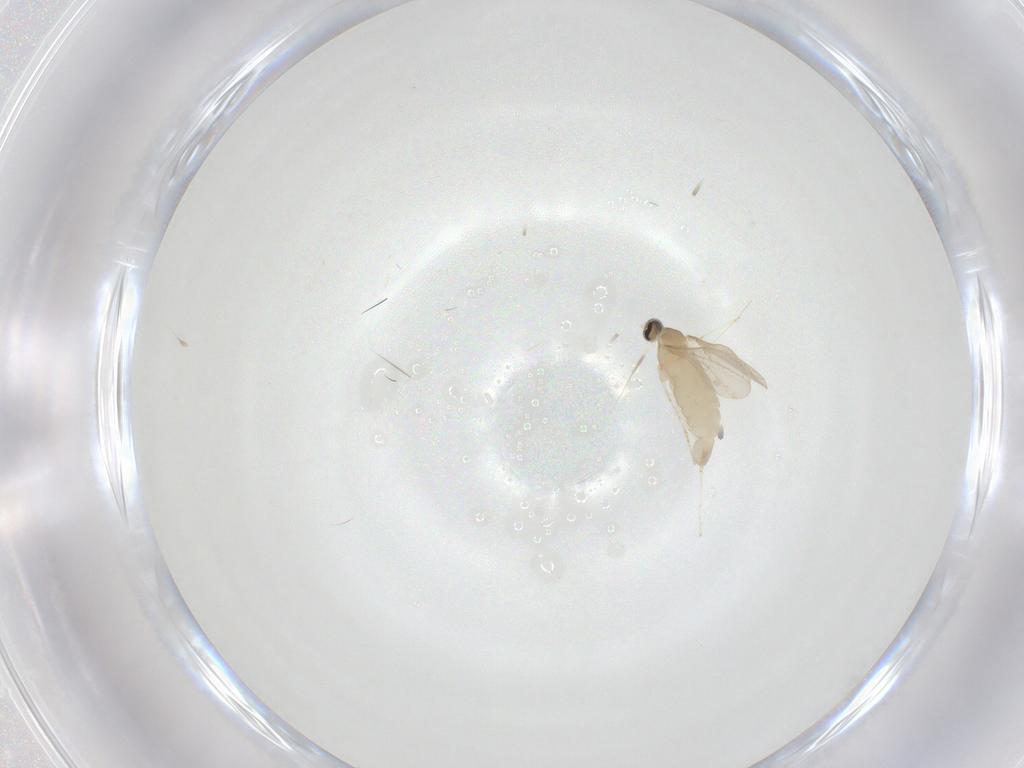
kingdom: Animalia
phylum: Arthropoda
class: Insecta
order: Diptera
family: Cecidomyiidae
